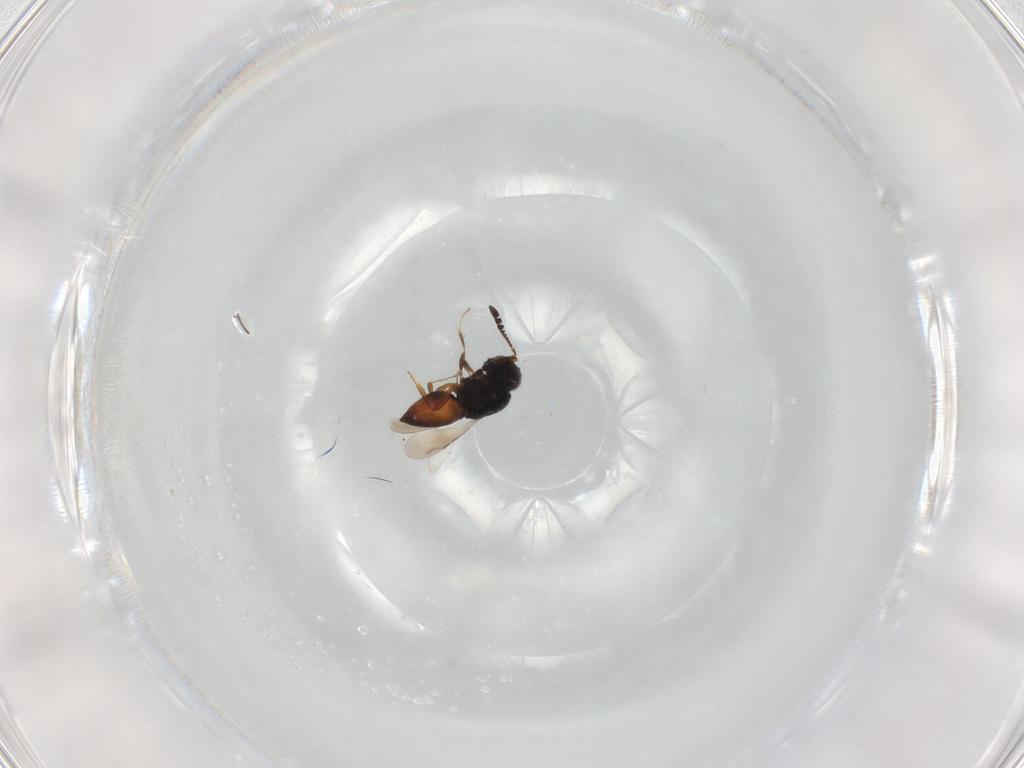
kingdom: Animalia
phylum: Arthropoda
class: Insecta
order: Hymenoptera
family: Ceraphronidae
